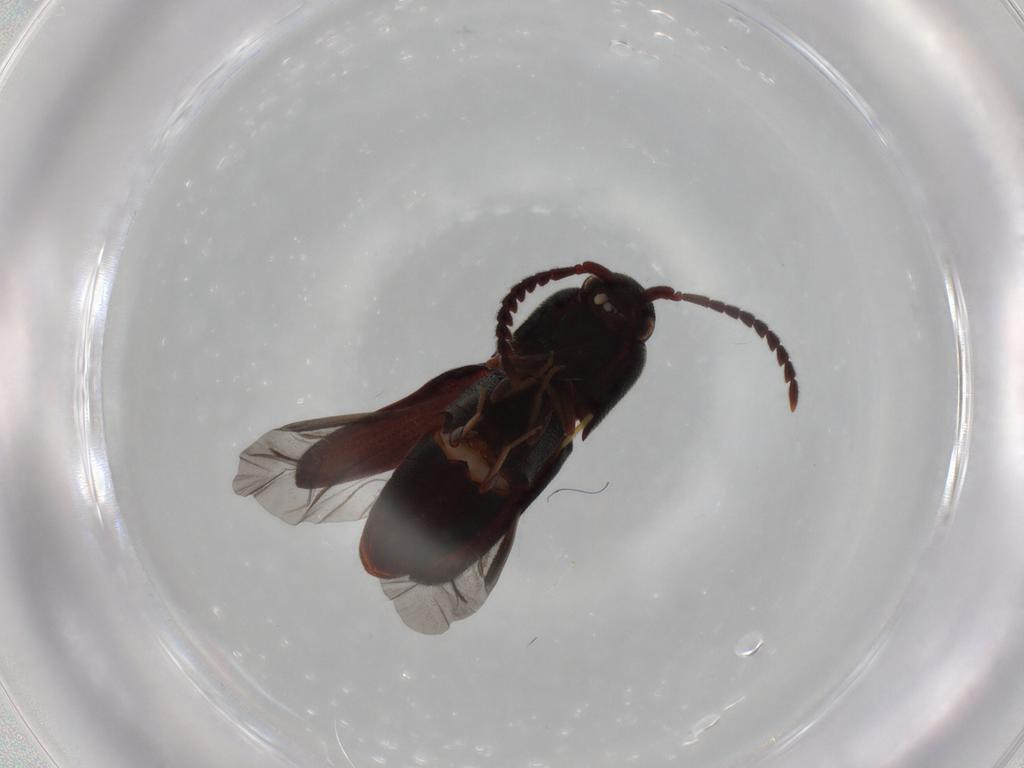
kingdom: Animalia
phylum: Arthropoda
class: Insecta
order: Coleoptera
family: Eucnemidae
